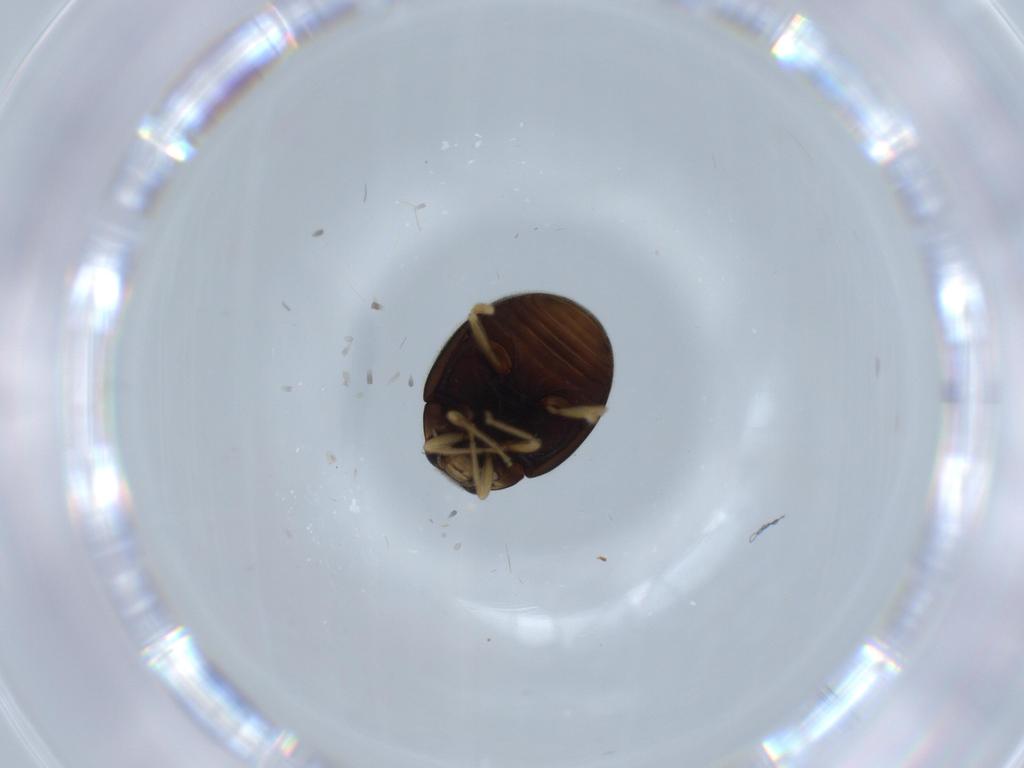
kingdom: Animalia
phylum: Arthropoda
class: Insecta
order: Coleoptera
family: Coccinellidae
